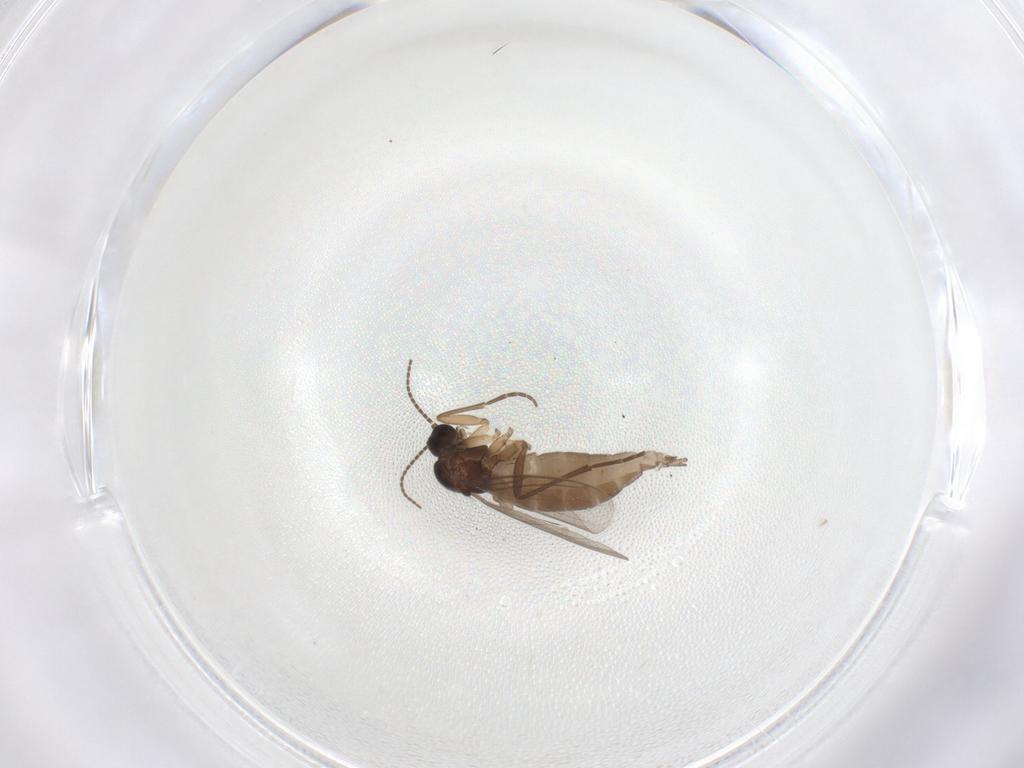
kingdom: Animalia
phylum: Arthropoda
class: Insecta
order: Diptera
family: Sciaridae
